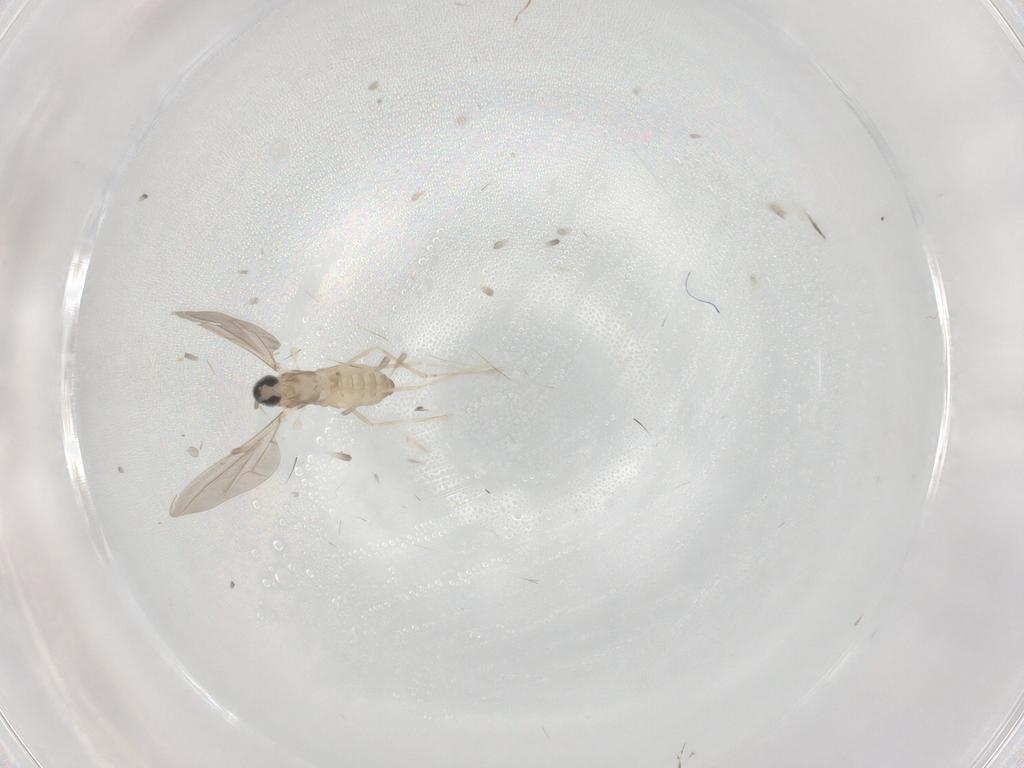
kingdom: Animalia
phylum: Arthropoda
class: Insecta
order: Diptera
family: Cecidomyiidae
